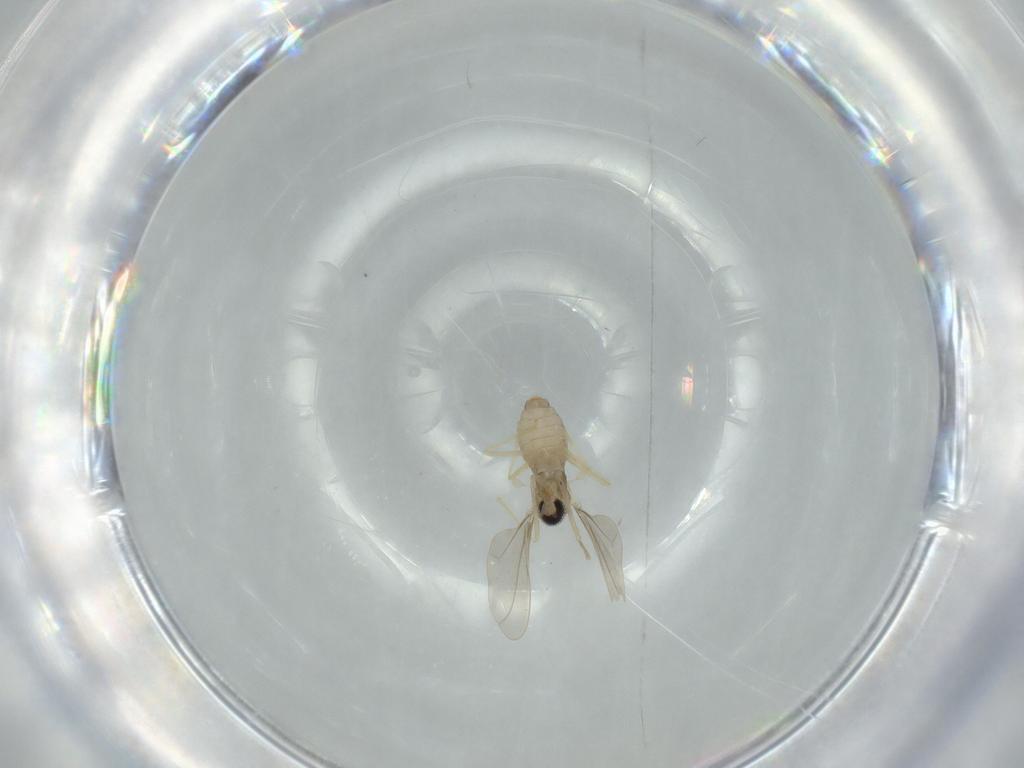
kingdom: Animalia
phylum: Arthropoda
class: Insecta
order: Diptera
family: Cecidomyiidae
